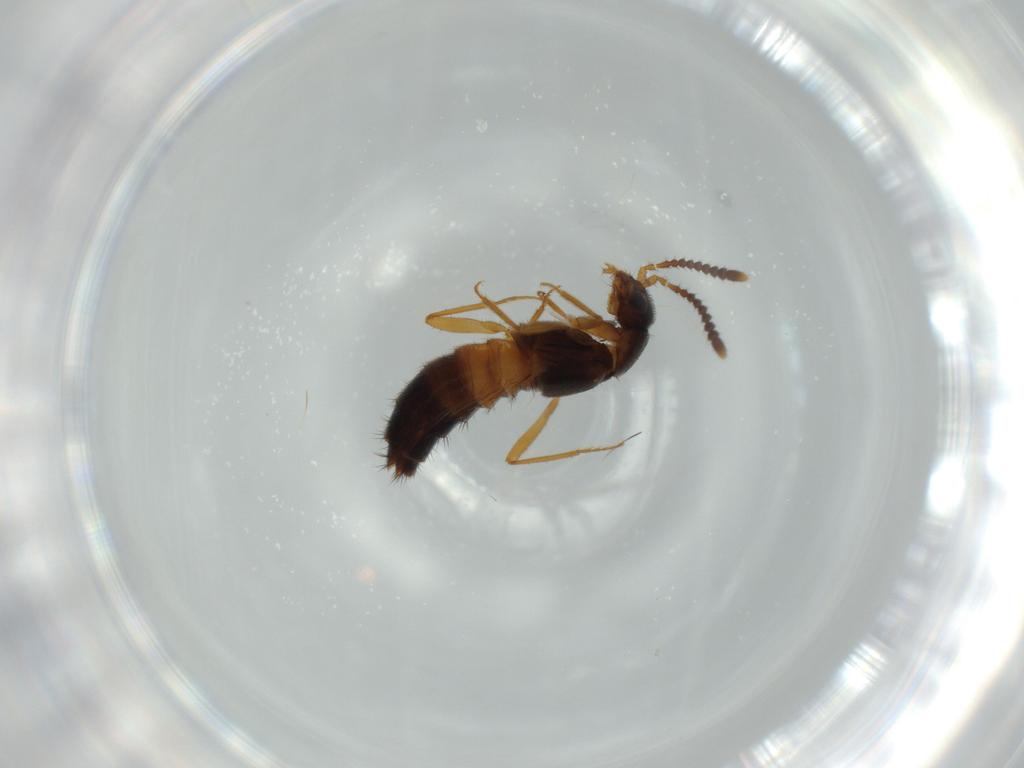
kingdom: Animalia
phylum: Arthropoda
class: Insecta
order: Coleoptera
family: Staphylinidae
